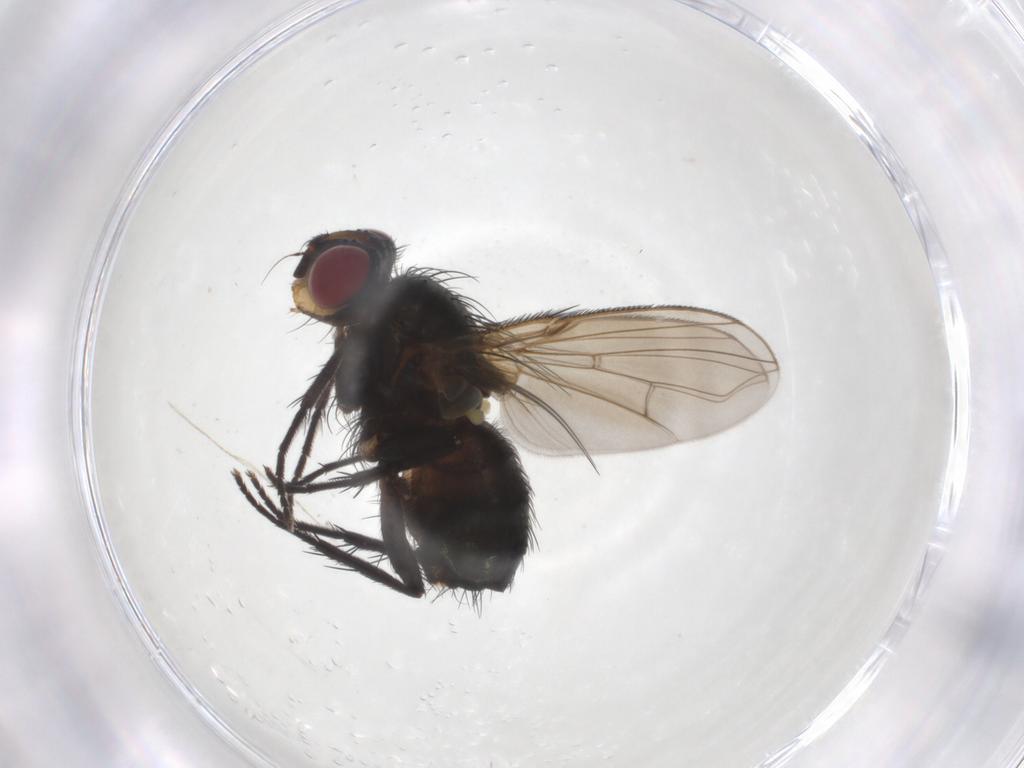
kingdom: Animalia
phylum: Arthropoda
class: Insecta
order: Diptera
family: Calliphoridae
